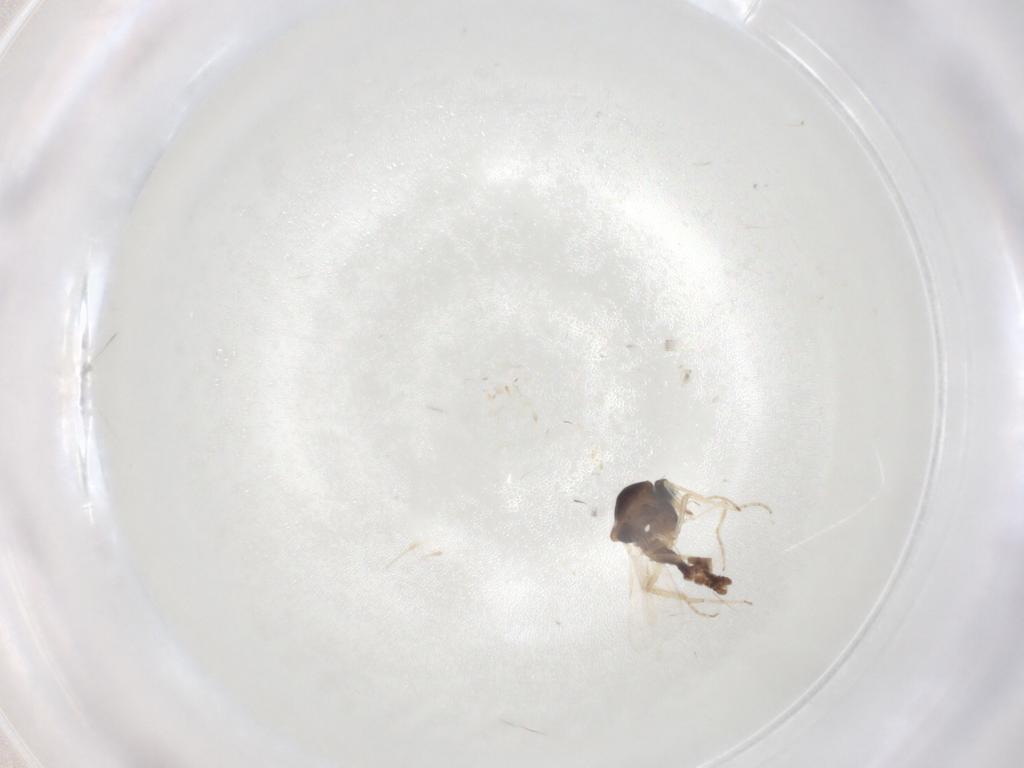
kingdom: Animalia
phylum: Arthropoda
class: Insecta
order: Diptera
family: Ceratopogonidae
